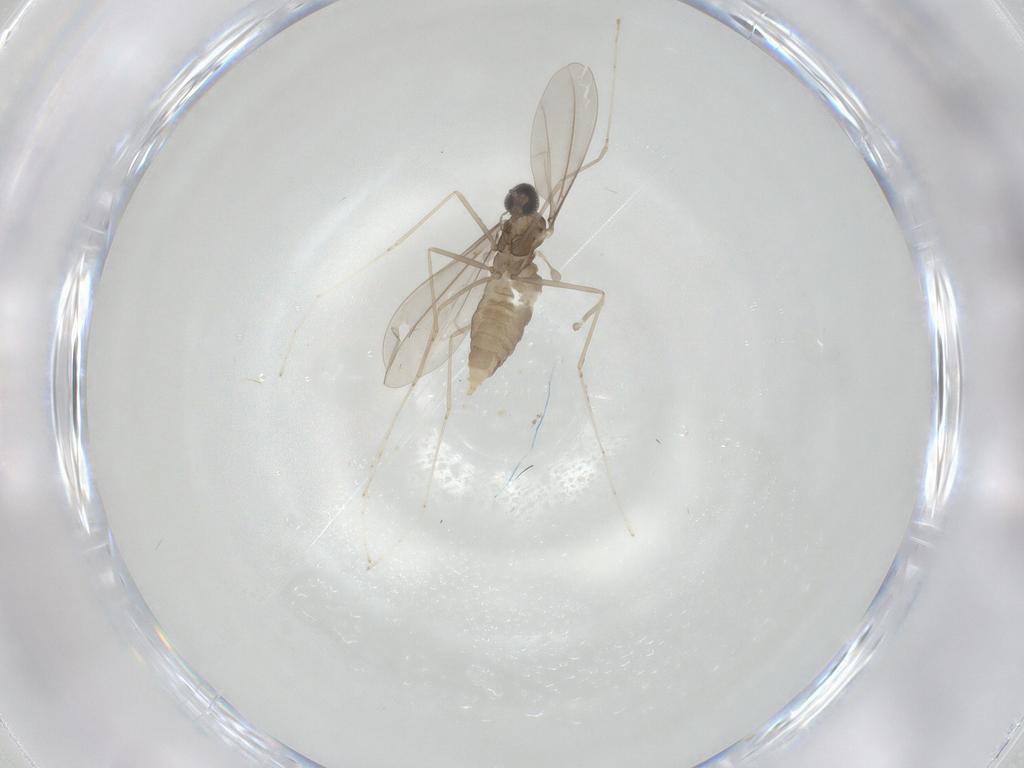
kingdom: Animalia
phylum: Arthropoda
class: Insecta
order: Diptera
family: Cecidomyiidae
